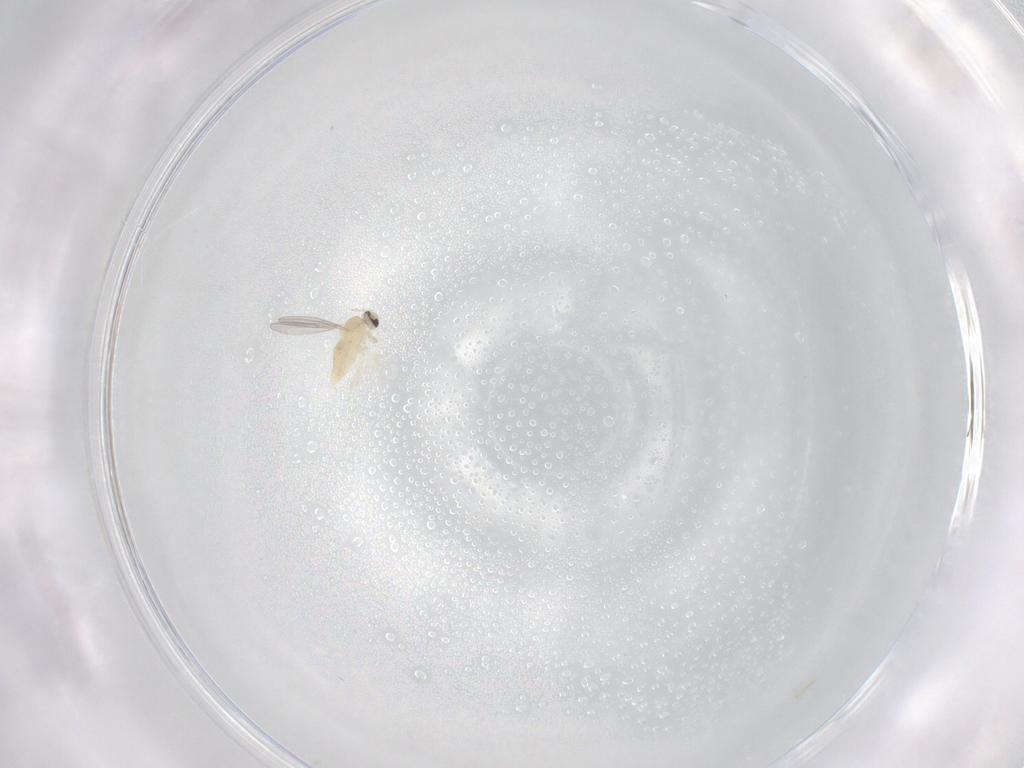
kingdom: Animalia
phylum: Arthropoda
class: Insecta
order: Diptera
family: Cecidomyiidae
